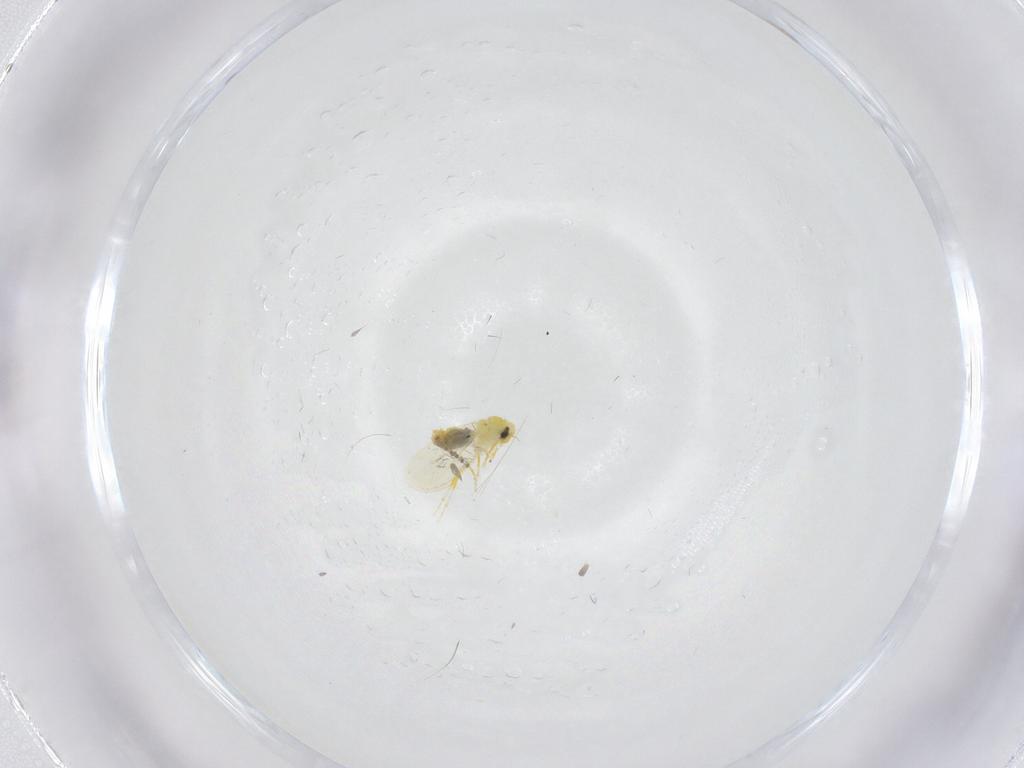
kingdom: Animalia
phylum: Arthropoda
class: Insecta
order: Hemiptera
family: Aleyrodidae
